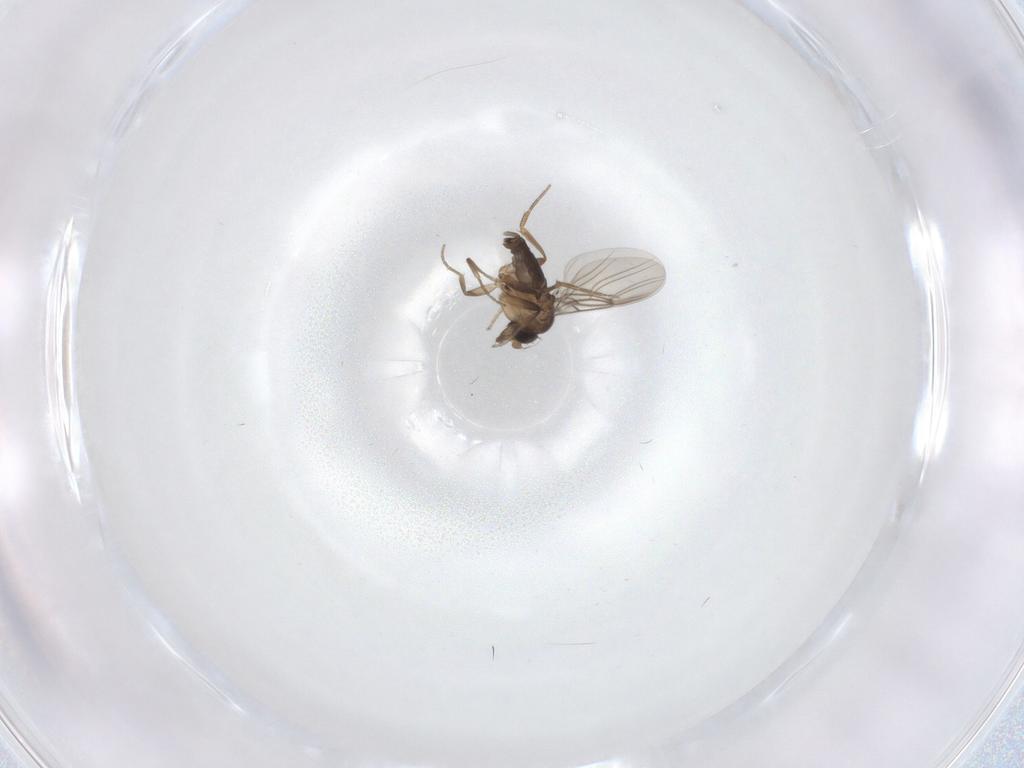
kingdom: Animalia
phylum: Arthropoda
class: Insecta
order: Diptera
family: Phoridae
